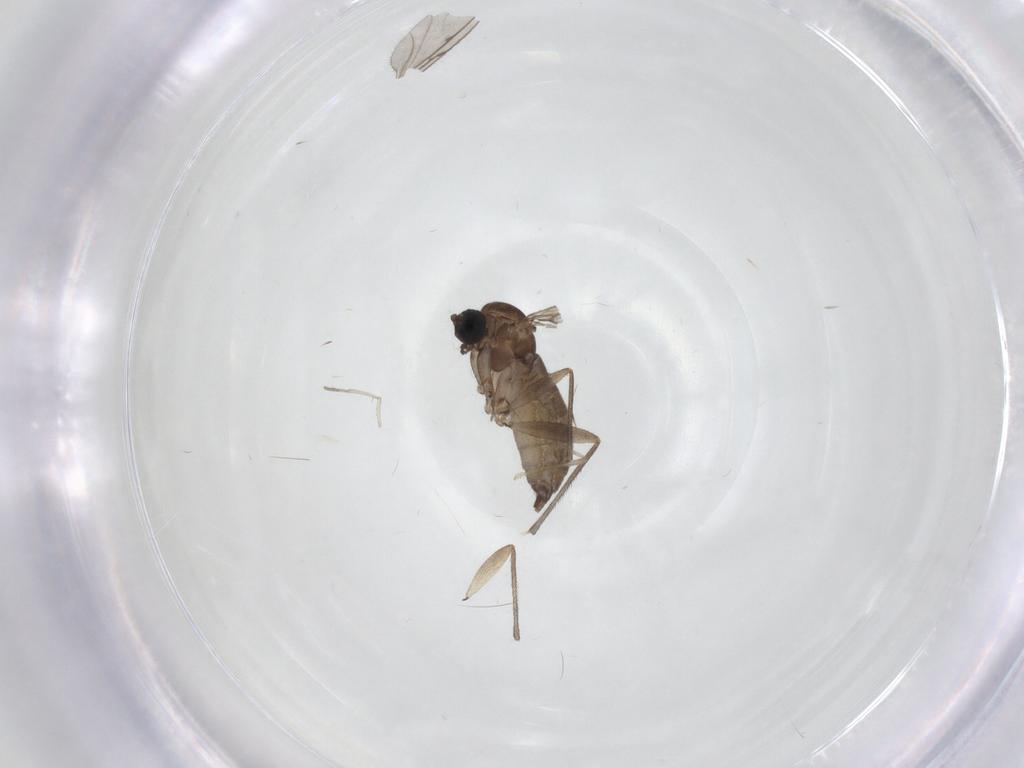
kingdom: Animalia
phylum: Arthropoda
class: Insecta
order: Diptera
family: Sciaridae
